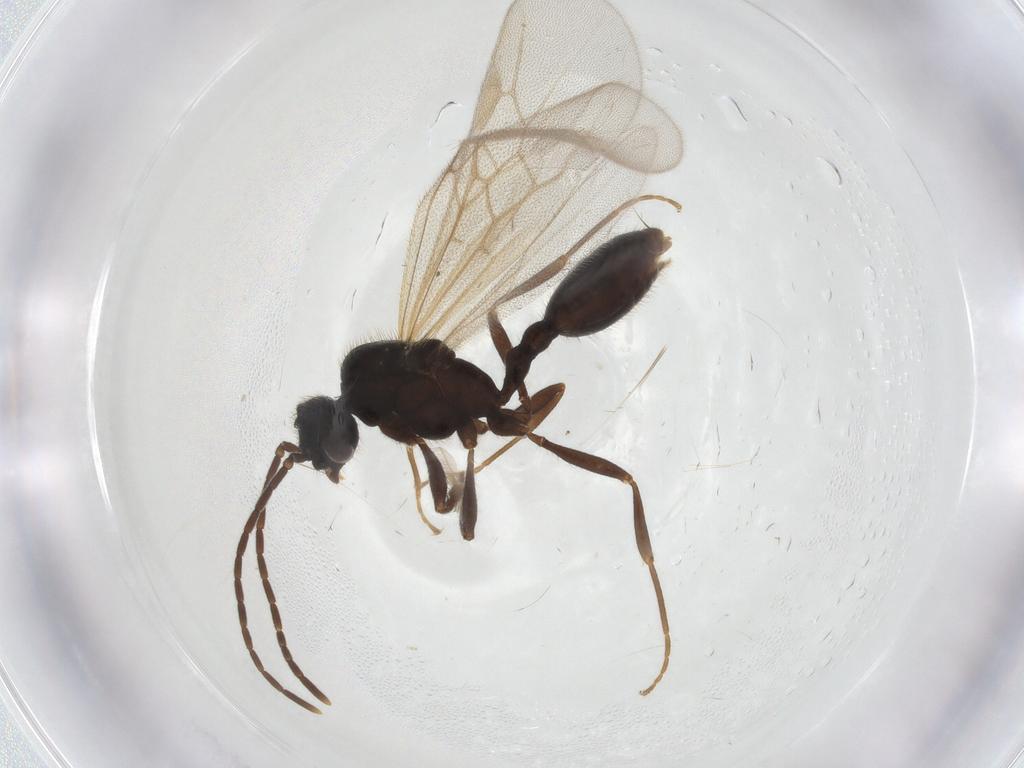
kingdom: Animalia
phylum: Arthropoda
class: Insecta
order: Hymenoptera
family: Formicidae
